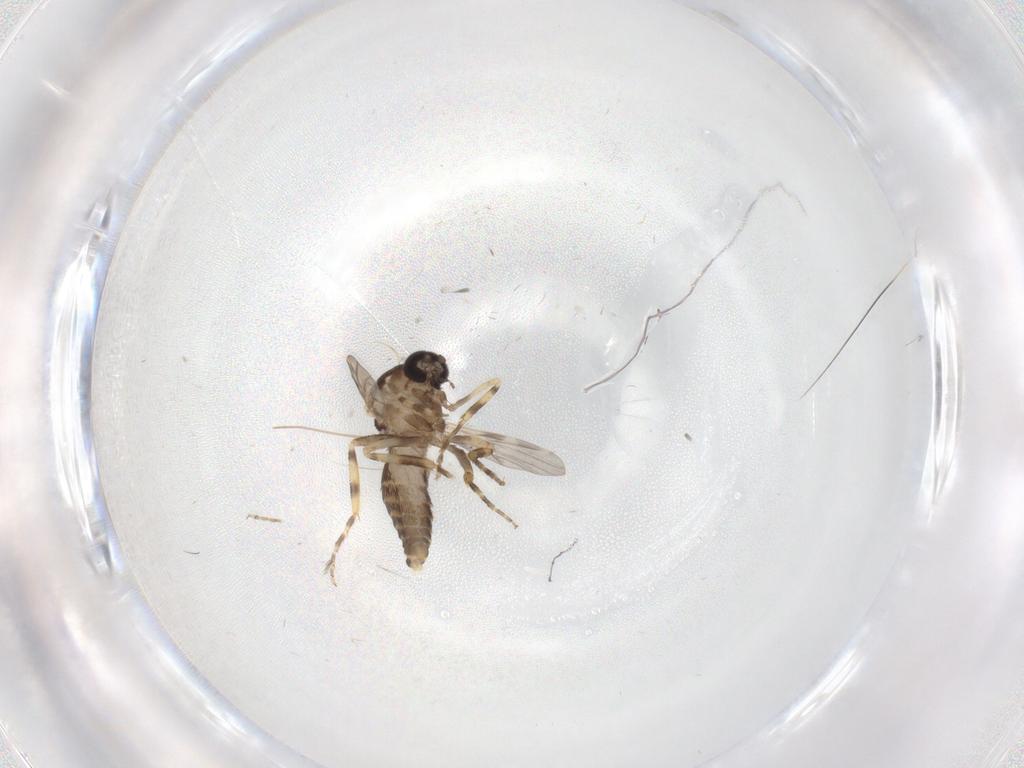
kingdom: Animalia
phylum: Arthropoda
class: Insecta
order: Diptera
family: Ceratopogonidae
